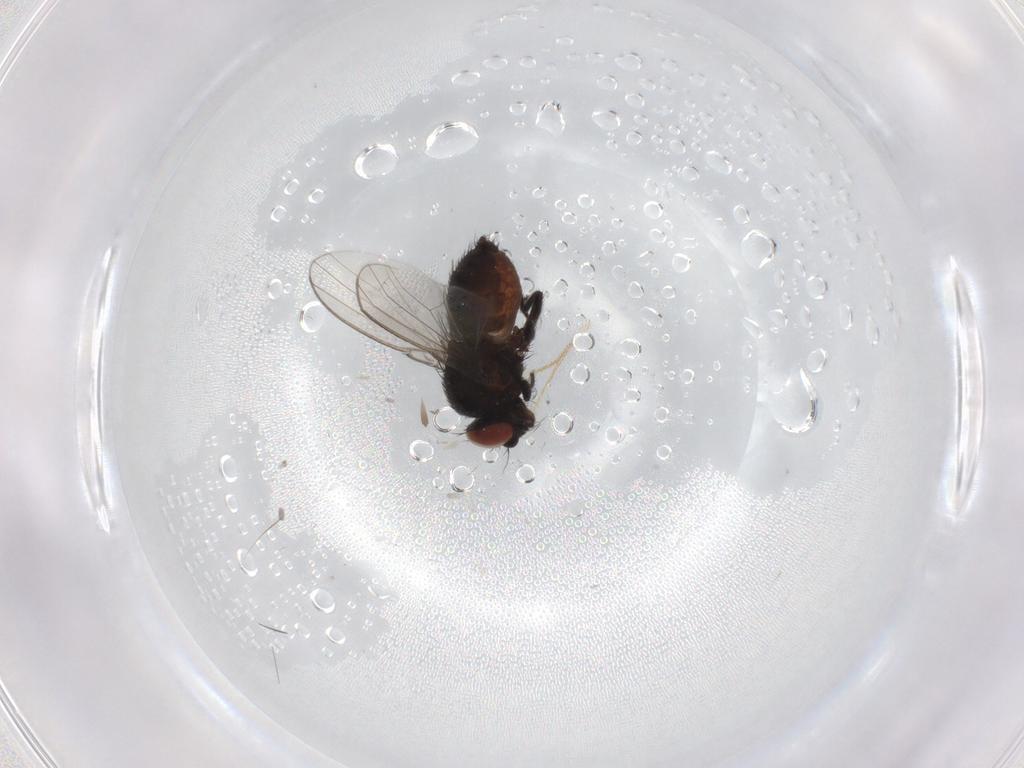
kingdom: Animalia
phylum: Arthropoda
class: Insecta
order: Diptera
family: Milichiidae
